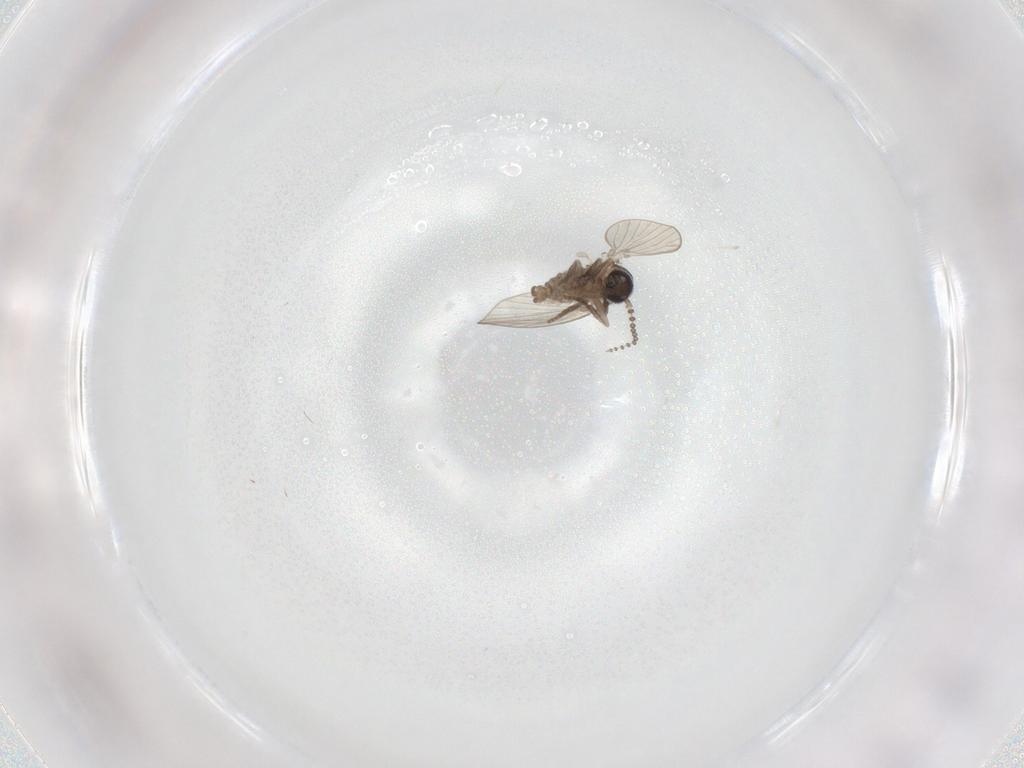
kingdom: Animalia
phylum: Arthropoda
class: Insecta
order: Diptera
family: Psychodidae
